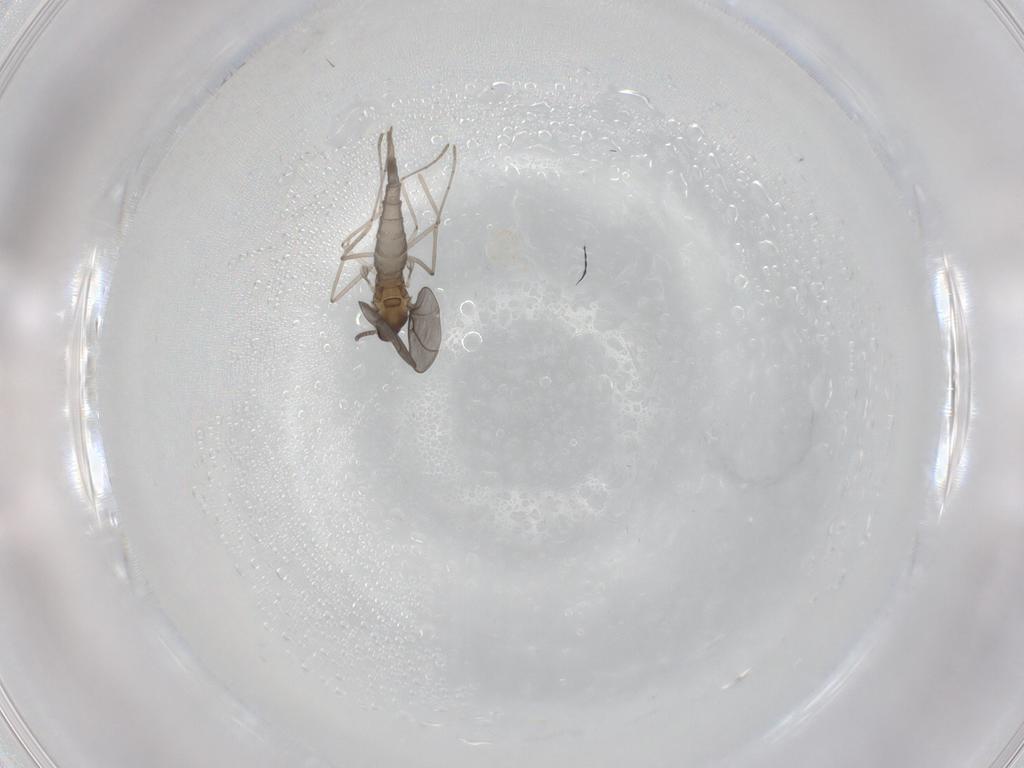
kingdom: Animalia
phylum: Arthropoda
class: Insecta
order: Diptera
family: Cecidomyiidae
